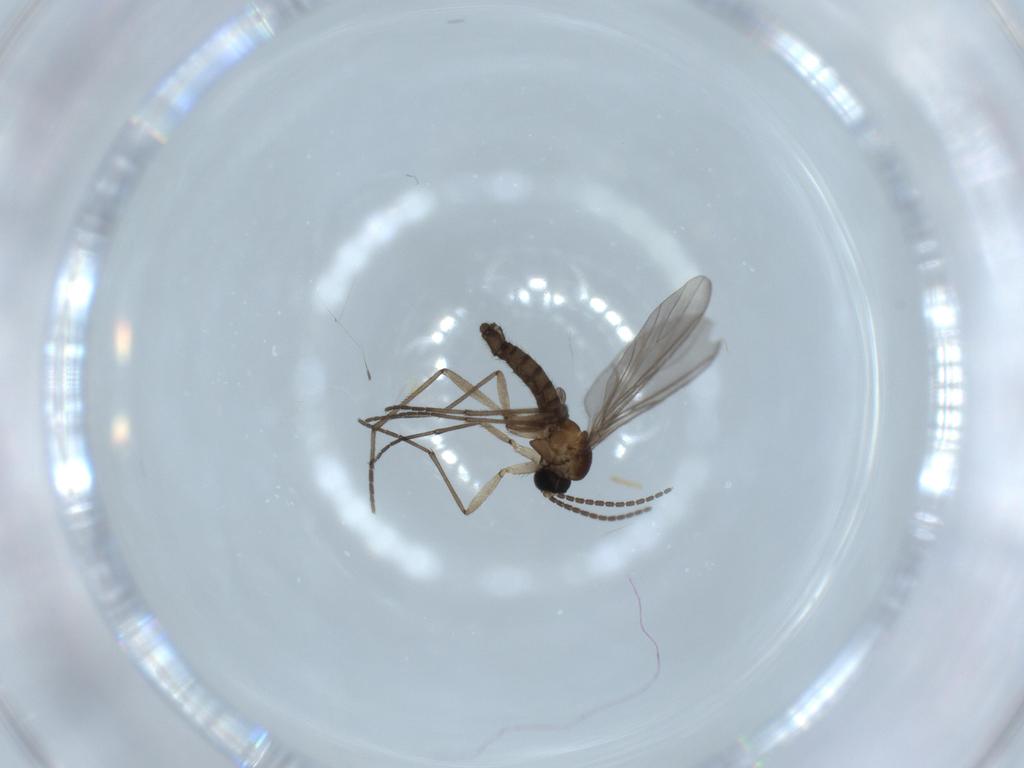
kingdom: Animalia
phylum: Arthropoda
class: Insecta
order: Diptera
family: Sciaridae
